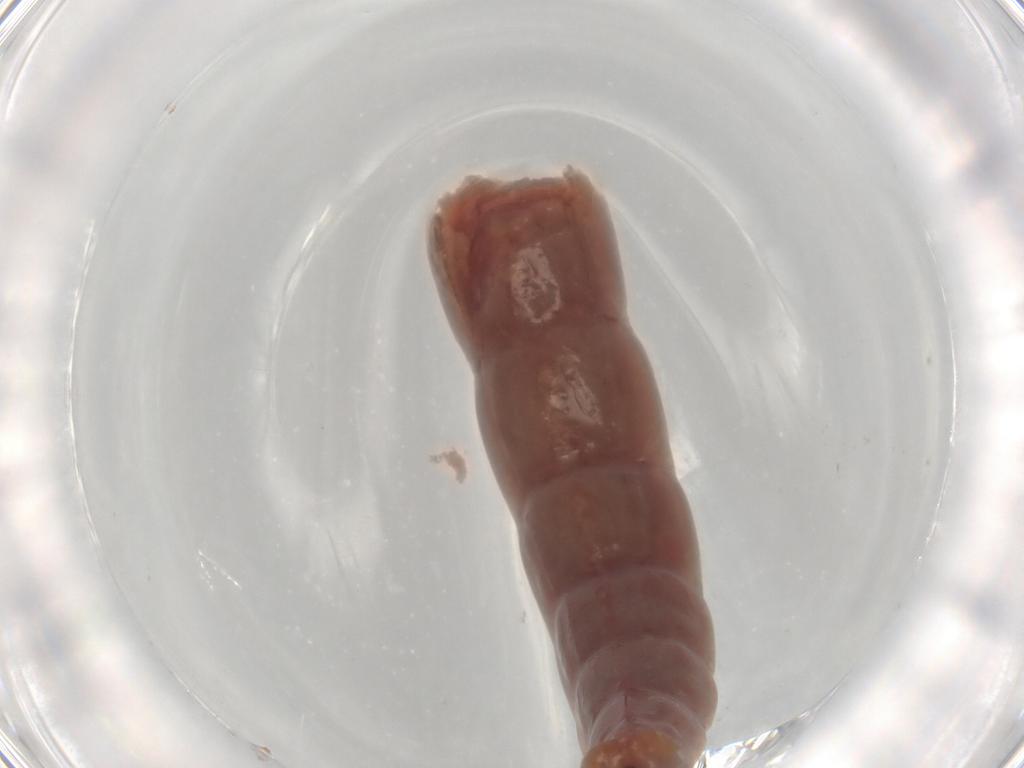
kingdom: Animalia
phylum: Arthropoda
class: Insecta
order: Diptera
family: Chironomidae
